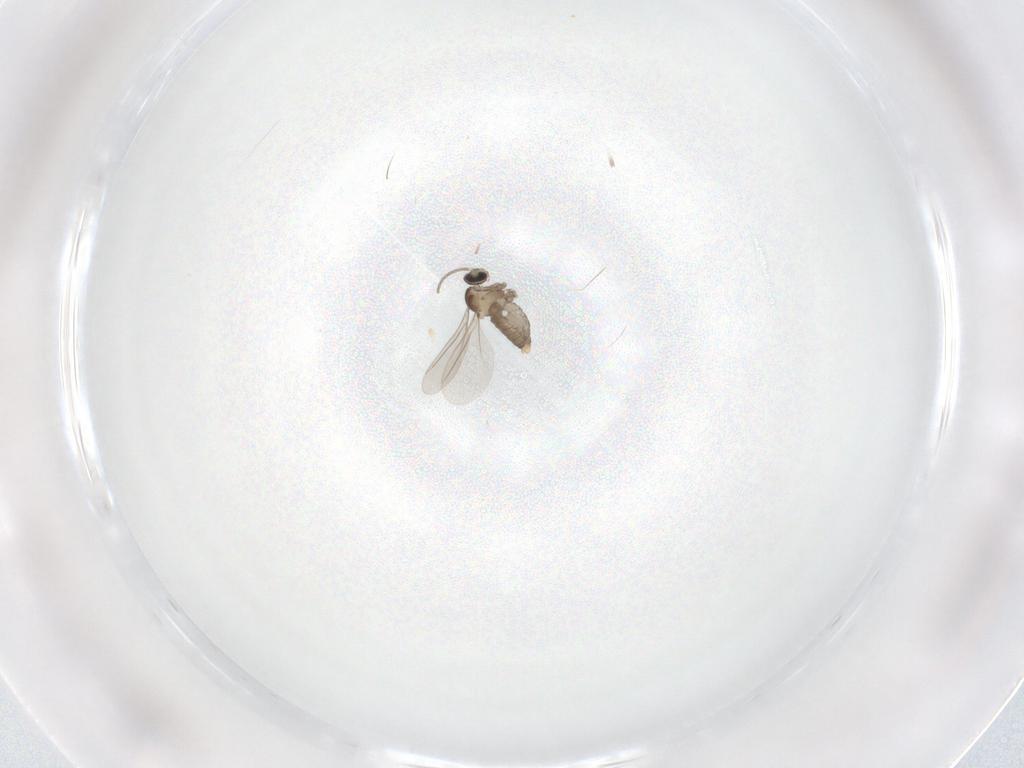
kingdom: Animalia
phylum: Arthropoda
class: Insecta
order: Diptera
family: Cecidomyiidae
